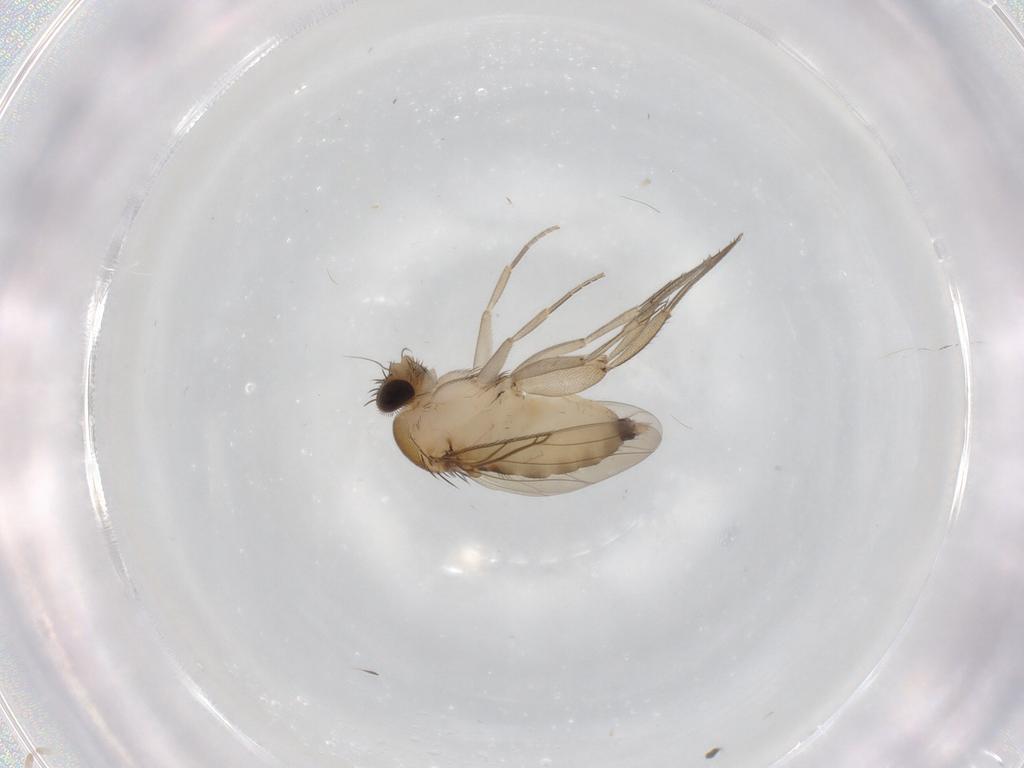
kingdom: Animalia
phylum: Arthropoda
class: Insecta
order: Diptera
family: Phoridae
